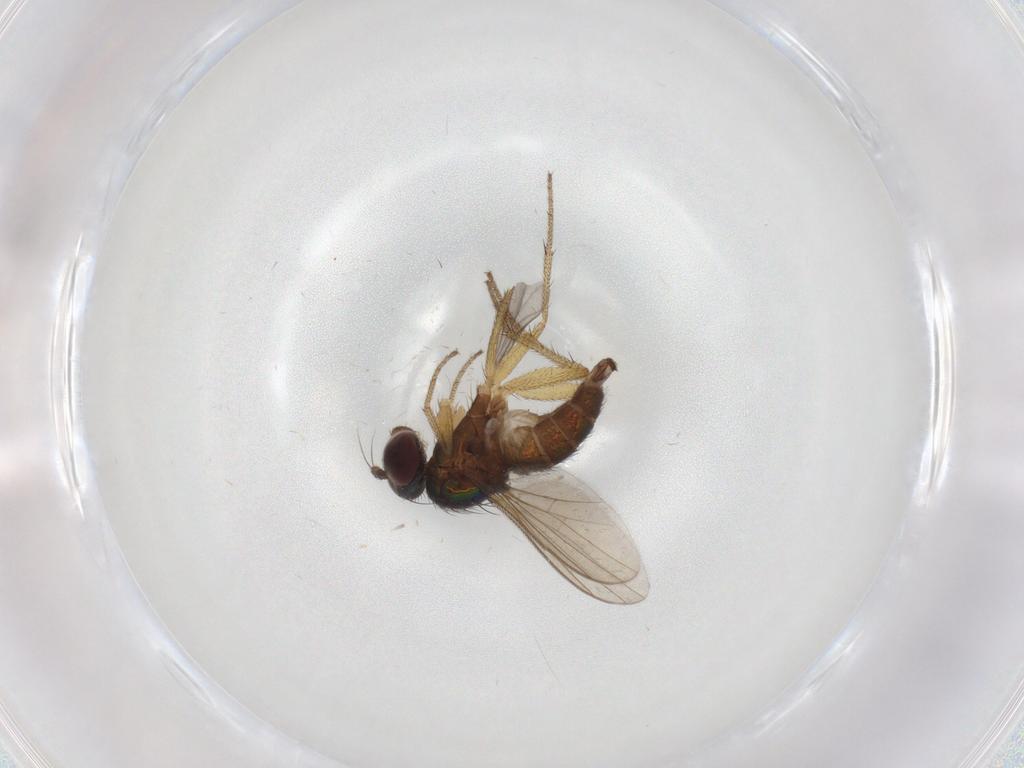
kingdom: Animalia
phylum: Arthropoda
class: Insecta
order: Diptera
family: Dolichopodidae
